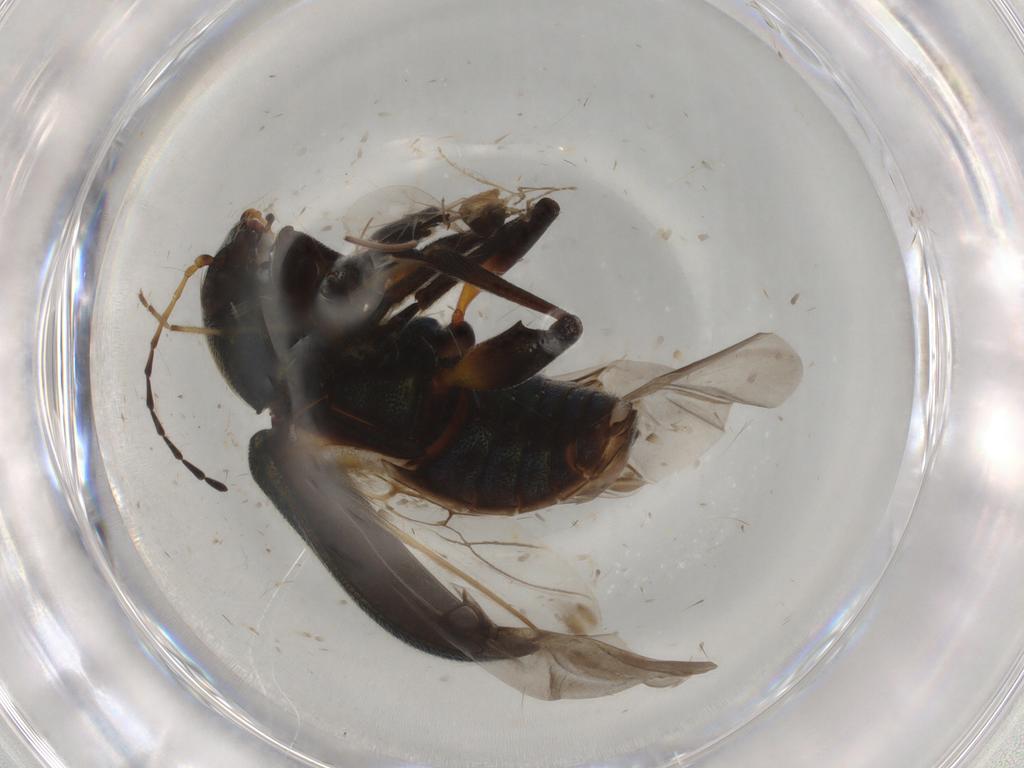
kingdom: Animalia
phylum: Arthropoda
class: Insecta
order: Coleoptera
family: Chrysomelidae
